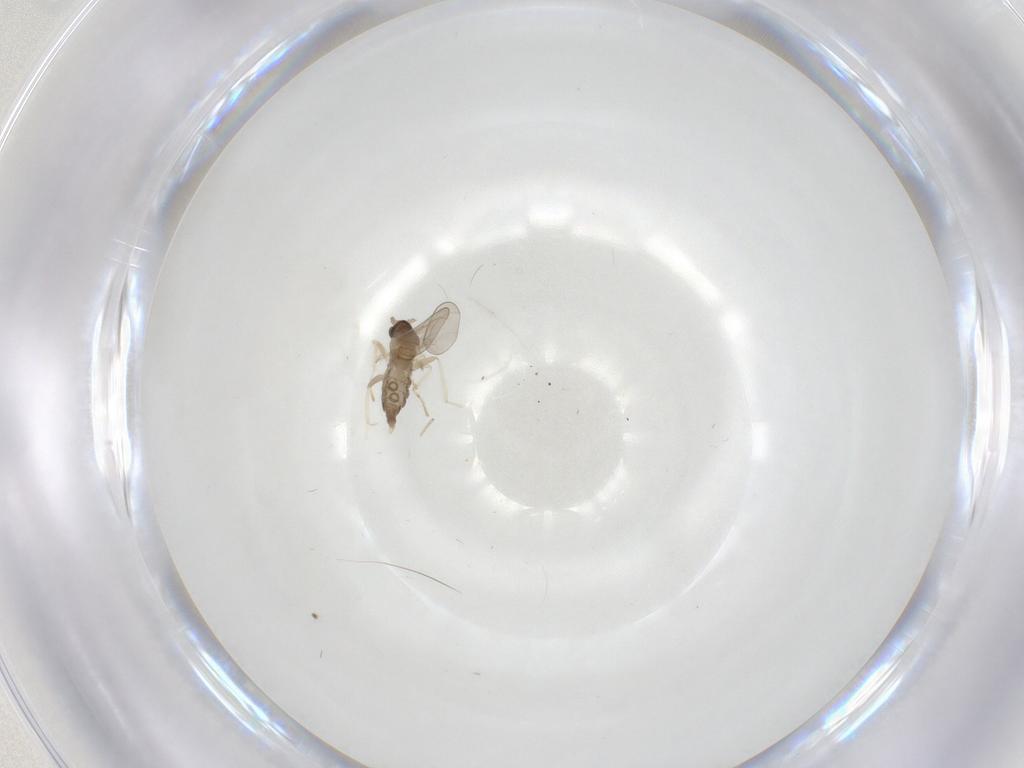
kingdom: Animalia
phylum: Arthropoda
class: Insecta
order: Diptera
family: Cecidomyiidae
